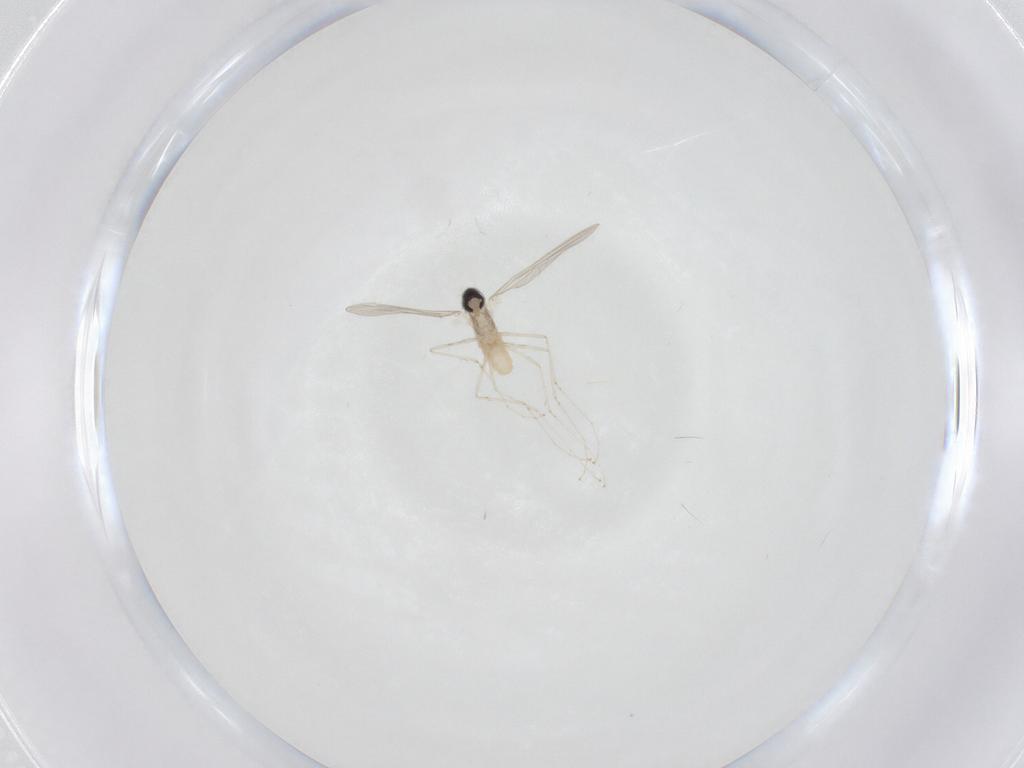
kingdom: Animalia
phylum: Arthropoda
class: Insecta
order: Diptera
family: Cecidomyiidae
